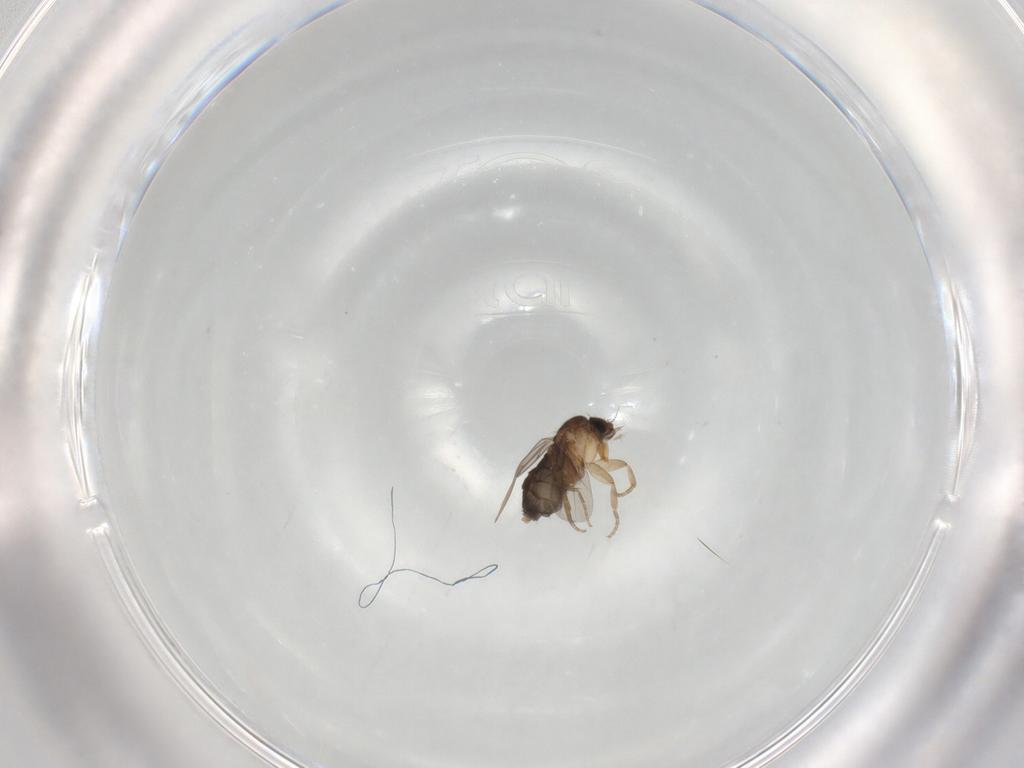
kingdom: Animalia
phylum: Arthropoda
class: Insecta
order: Diptera
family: Phoridae
